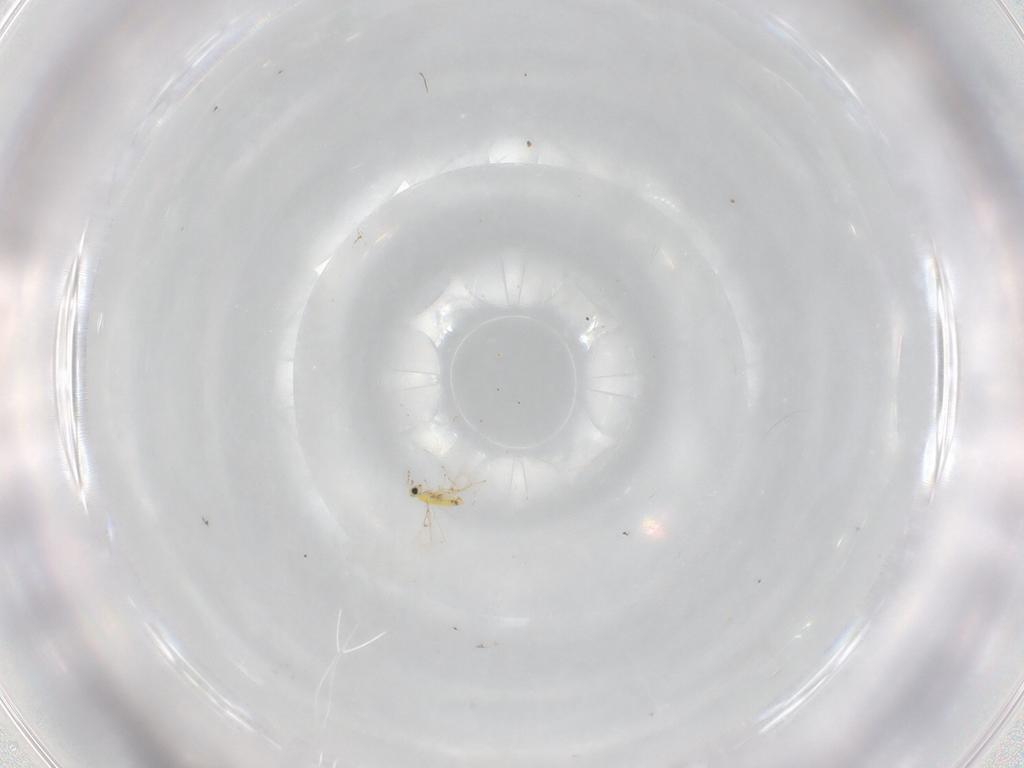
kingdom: Animalia
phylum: Arthropoda
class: Insecta
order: Hymenoptera
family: Trichogrammatidae
